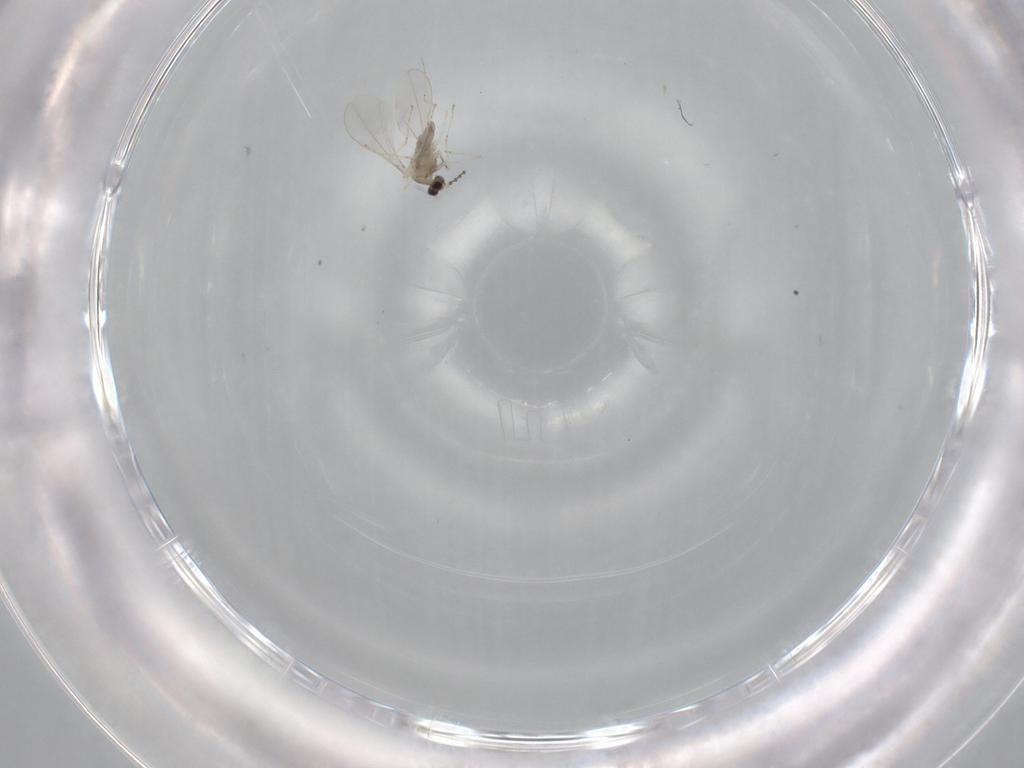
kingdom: Animalia
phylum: Arthropoda
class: Insecta
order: Diptera
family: Cecidomyiidae
